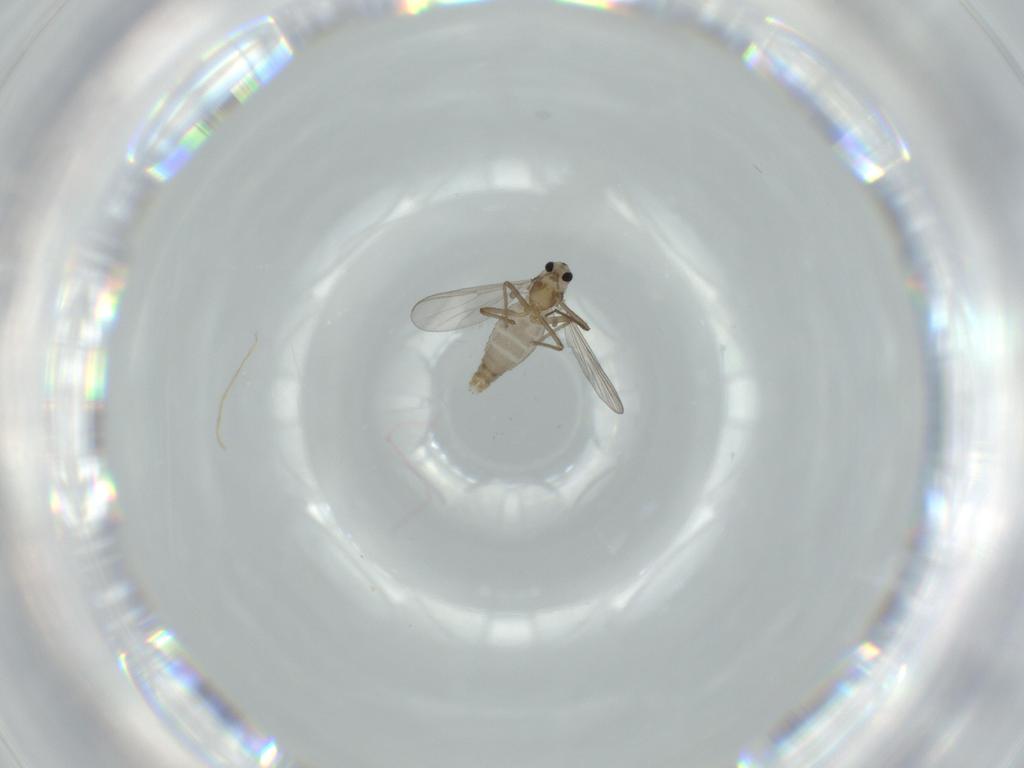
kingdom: Animalia
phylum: Arthropoda
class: Insecta
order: Diptera
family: Chironomidae
